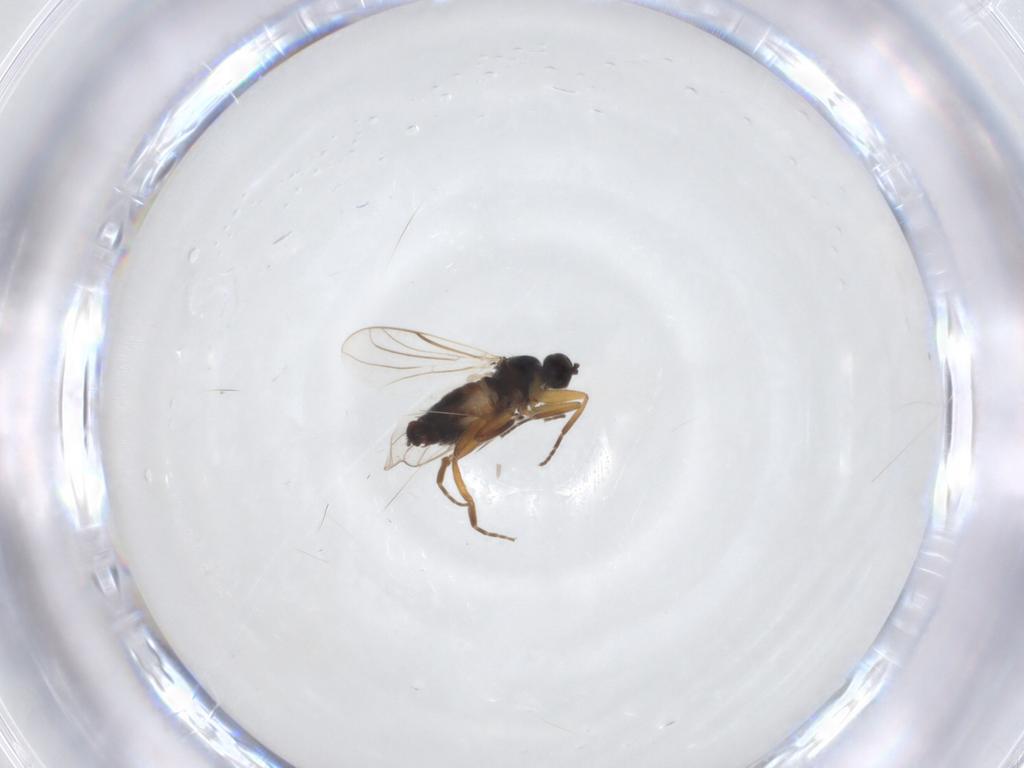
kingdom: Animalia
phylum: Arthropoda
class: Insecta
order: Diptera
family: Hybotidae
